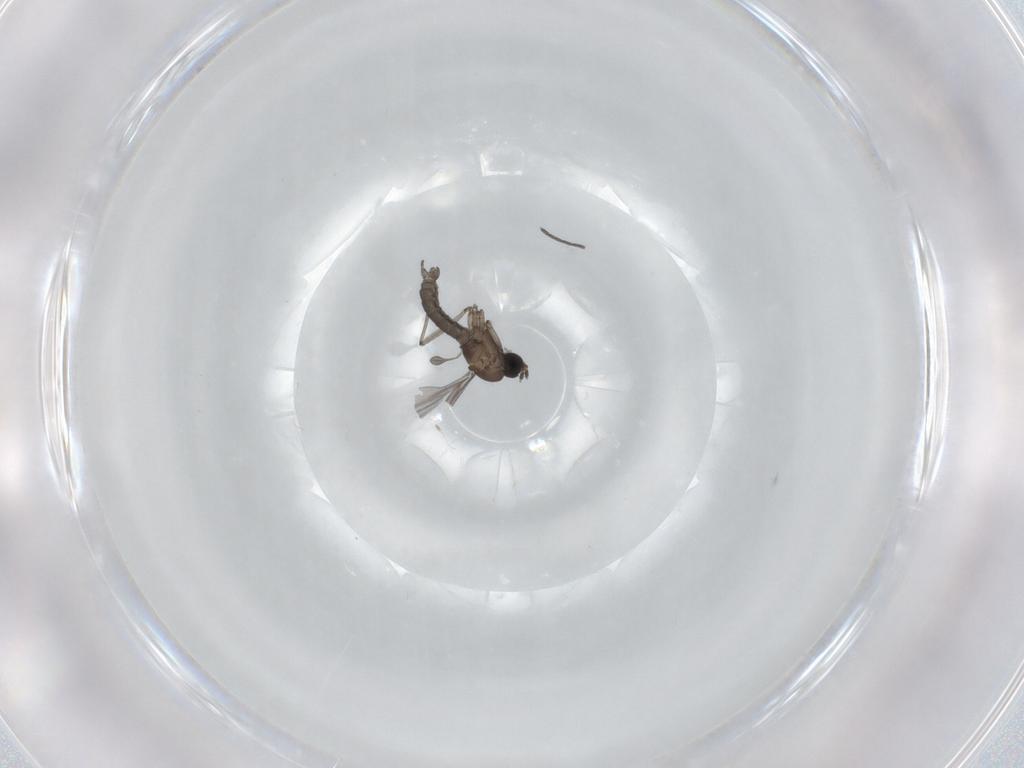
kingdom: Animalia
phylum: Arthropoda
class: Insecta
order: Diptera
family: Sciaridae
